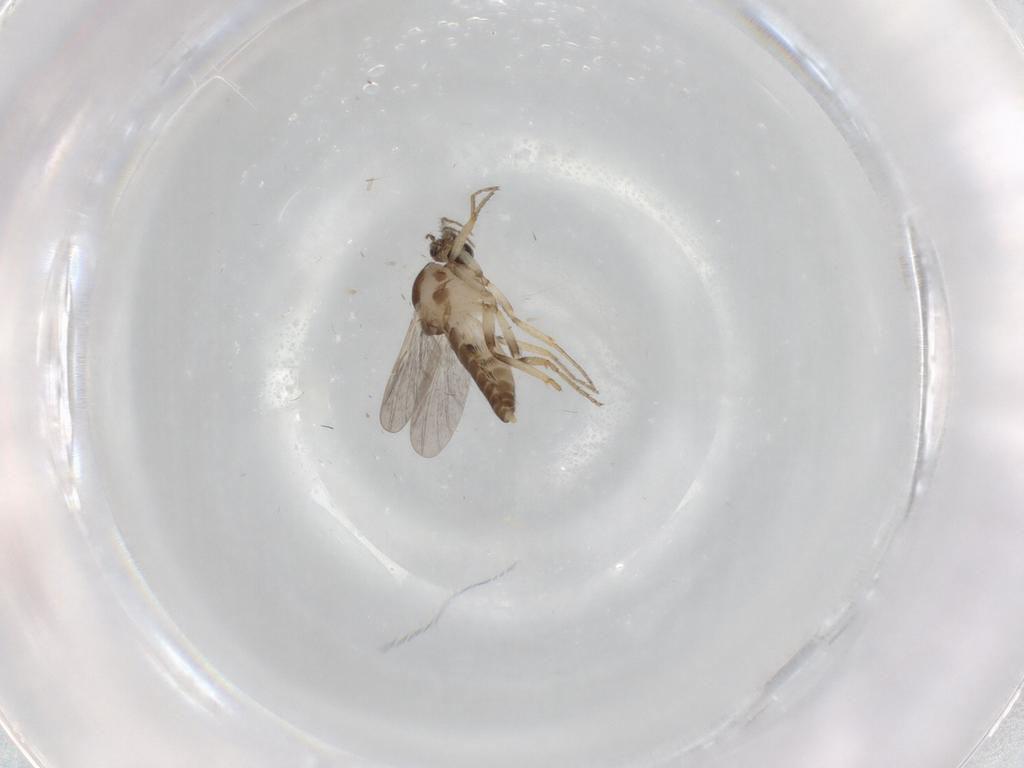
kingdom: Animalia
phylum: Arthropoda
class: Insecta
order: Diptera
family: Ceratopogonidae
